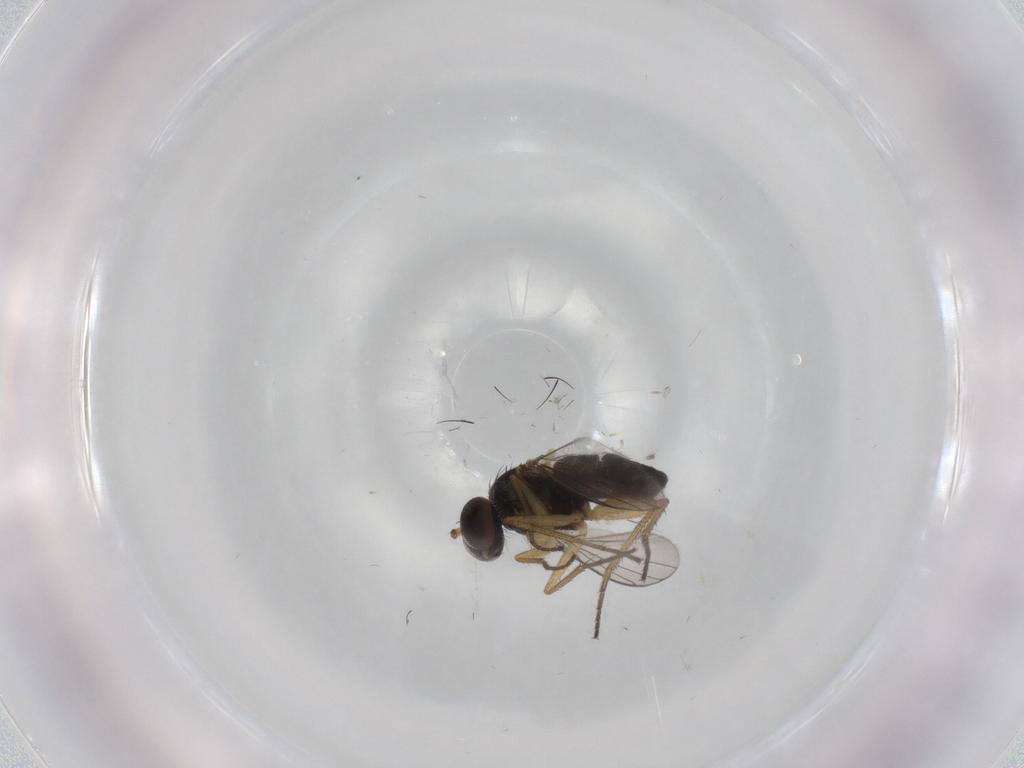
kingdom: Animalia
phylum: Arthropoda
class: Insecta
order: Diptera
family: Dolichopodidae
